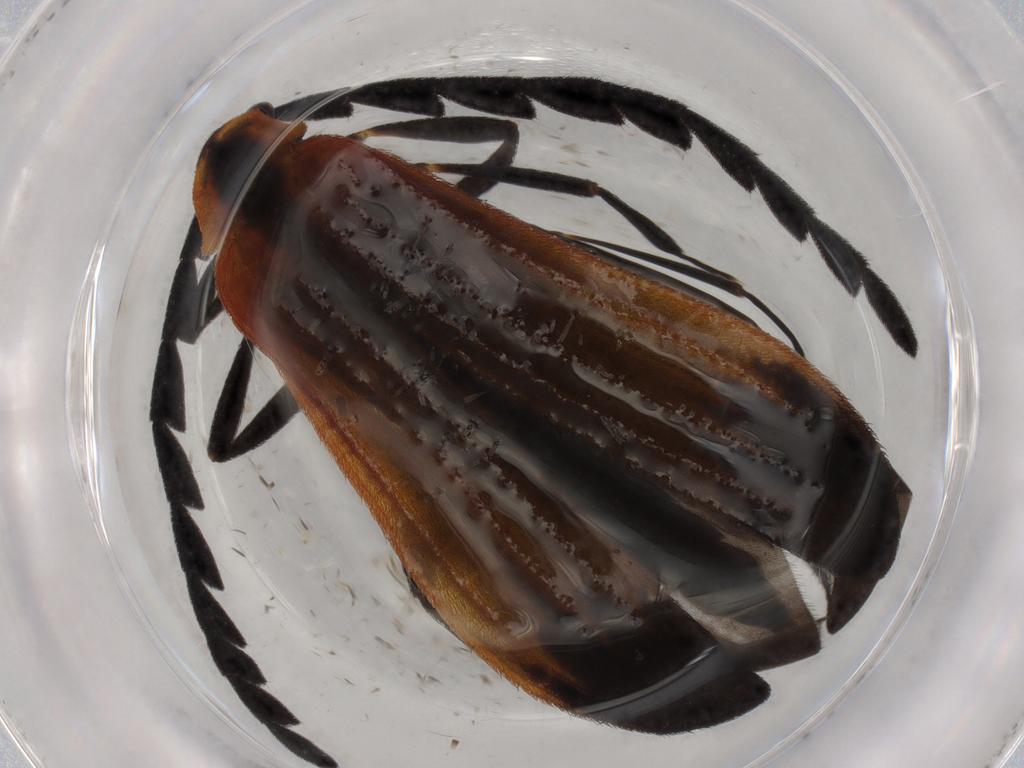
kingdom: Animalia
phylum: Arthropoda
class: Insecta
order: Coleoptera
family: Lycidae
